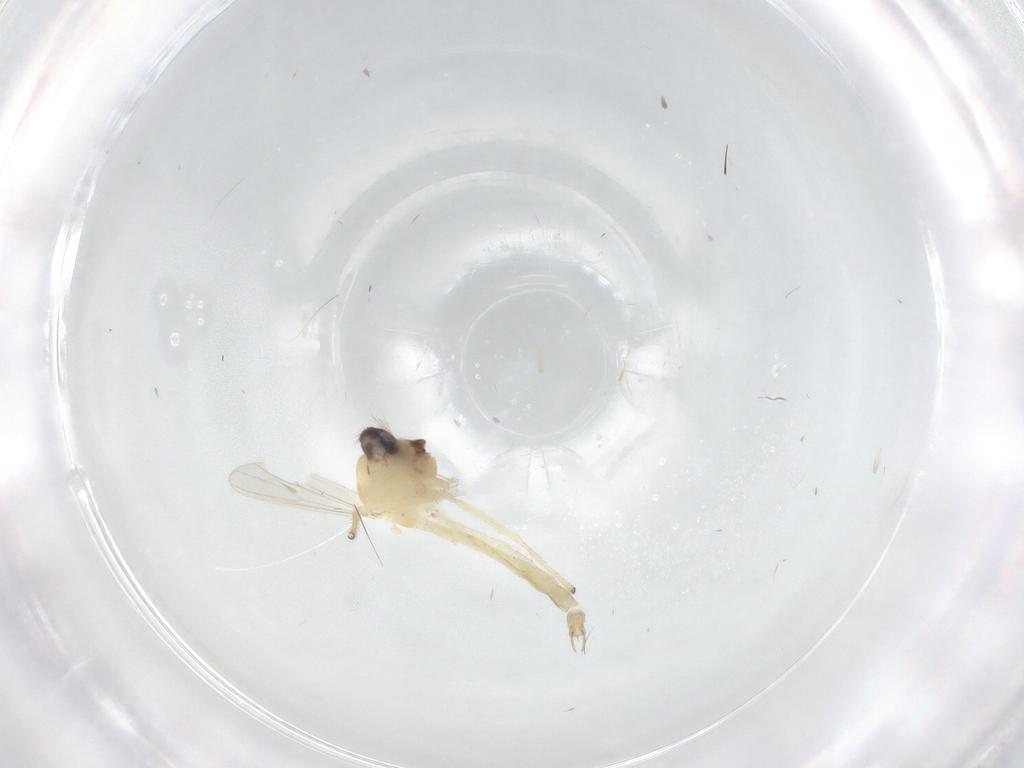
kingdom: Animalia
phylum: Arthropoda
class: Insecta
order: Diptera
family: Chironomidae
